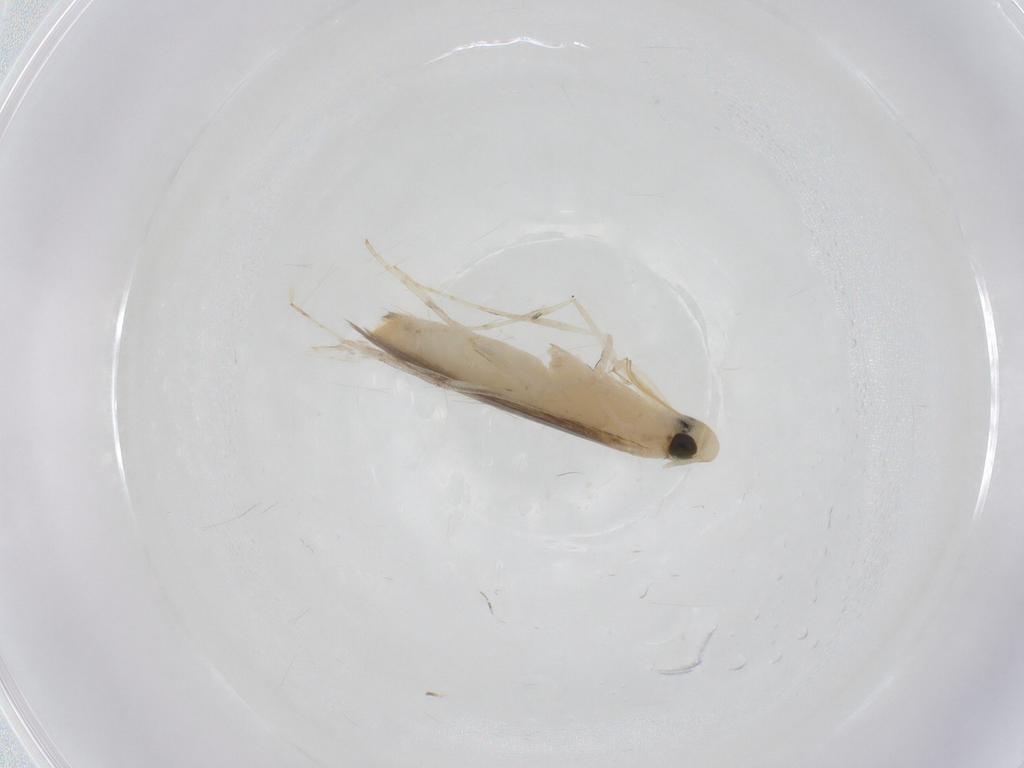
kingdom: Animalia
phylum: Arthropoda
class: Insecta
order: Lepidoptera
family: Gracillariidae
